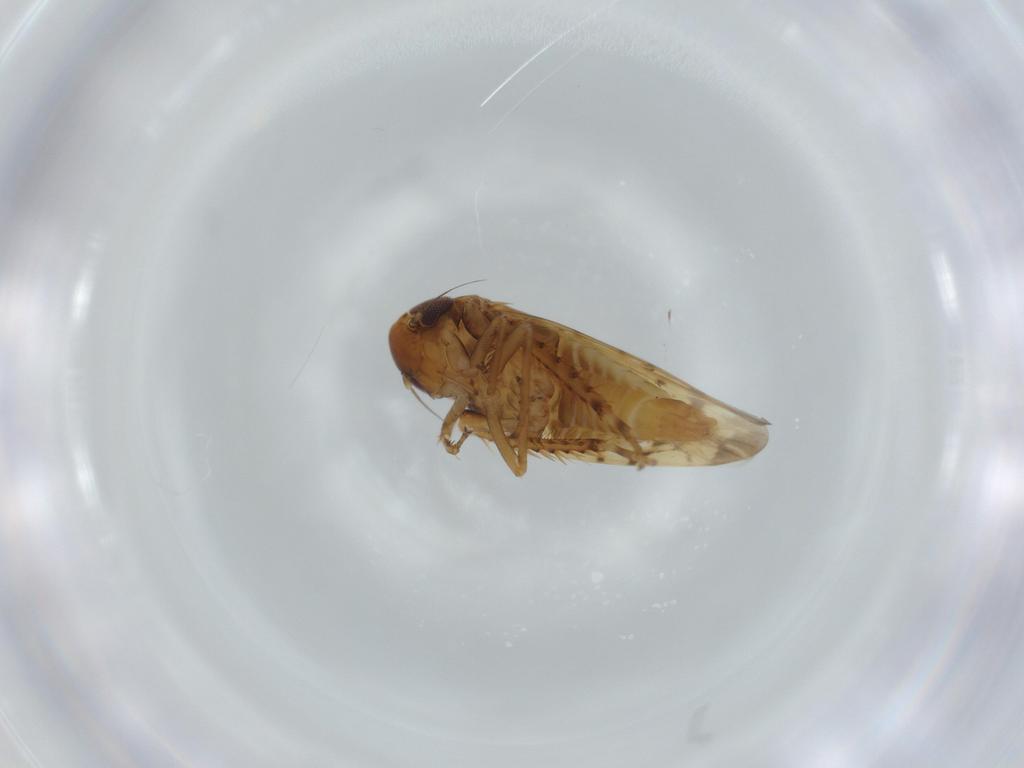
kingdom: Animalia
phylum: Arthropoda
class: Insecta
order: Hemiptera
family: Cicadellidae
